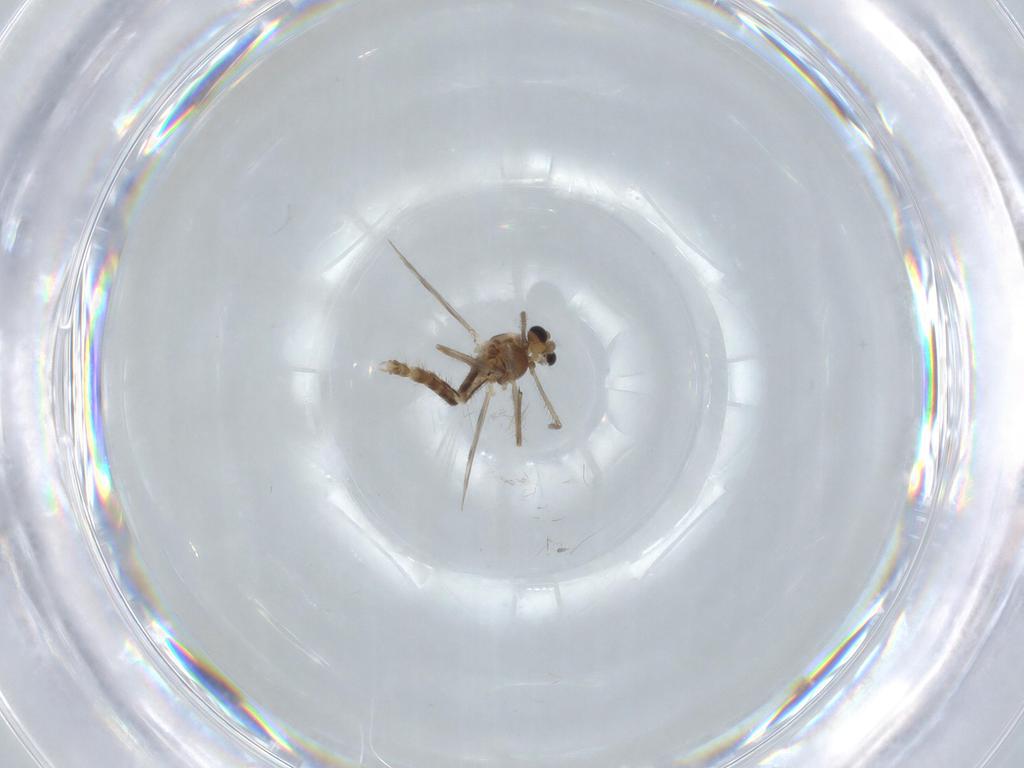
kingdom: Animalia
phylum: Arthropoda
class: Insecta
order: Diptera
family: Chironomidae
